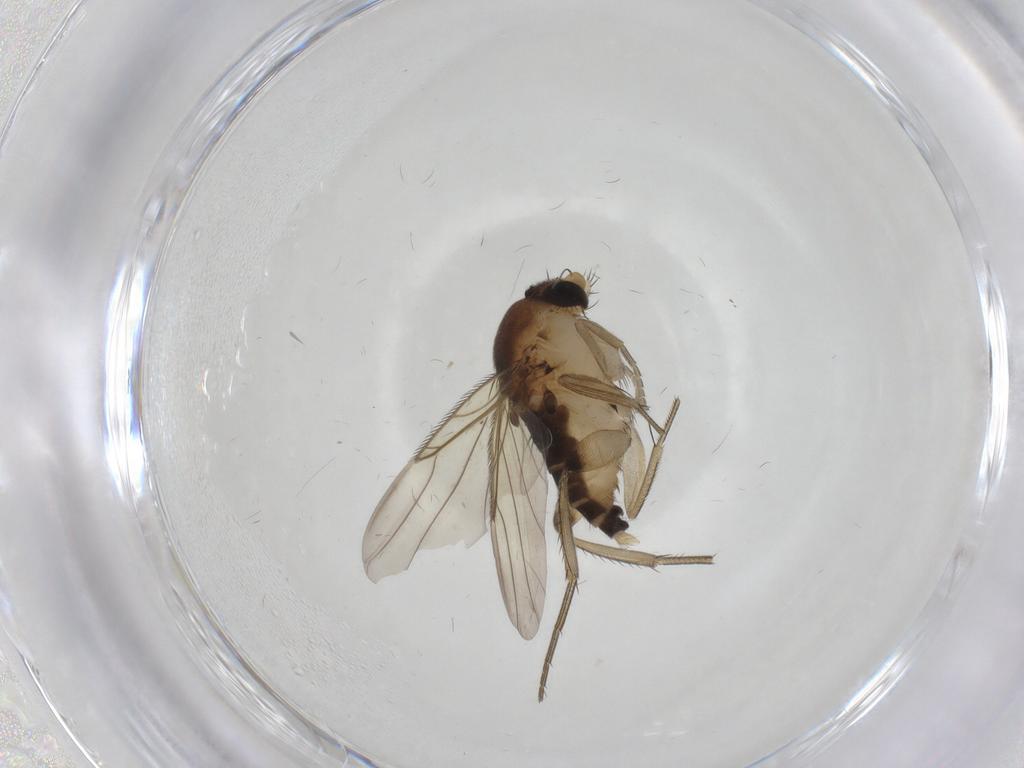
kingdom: Animalia
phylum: Arthropoda
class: Insecta
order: Diptera
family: Phoridae
